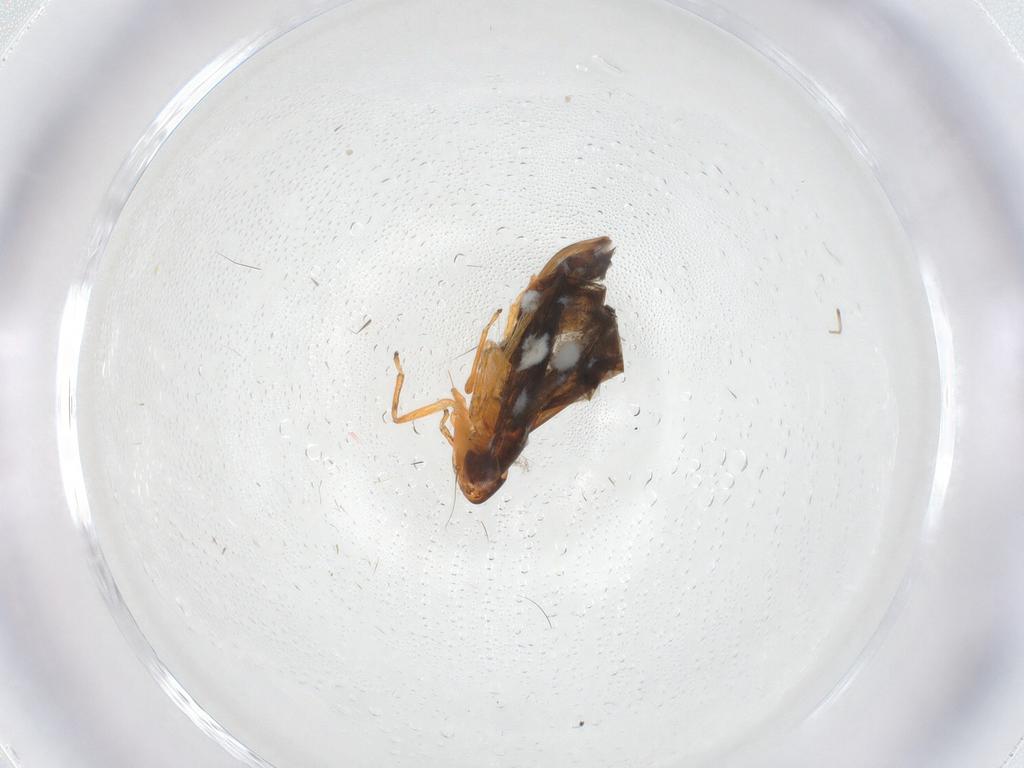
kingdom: Animalia
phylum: Arthropoda
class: Insecta
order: Diptera
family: Cecidomyiidae
